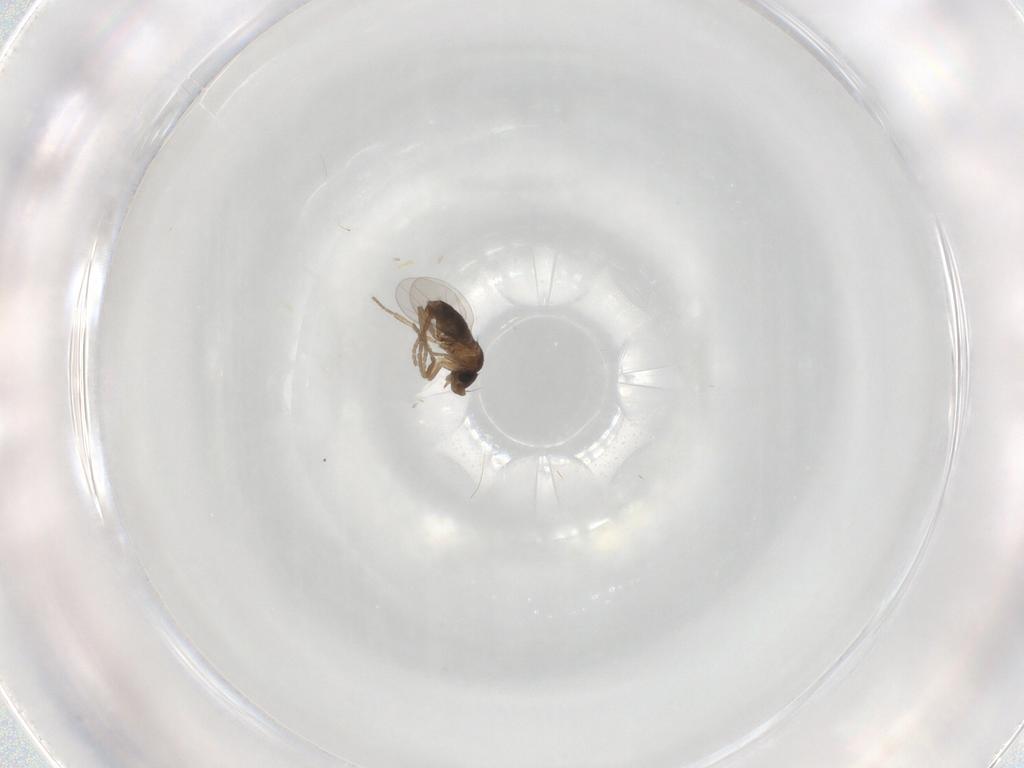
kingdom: Animalia
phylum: Arthropoda
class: Insecta
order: Diptera
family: Phoridae
